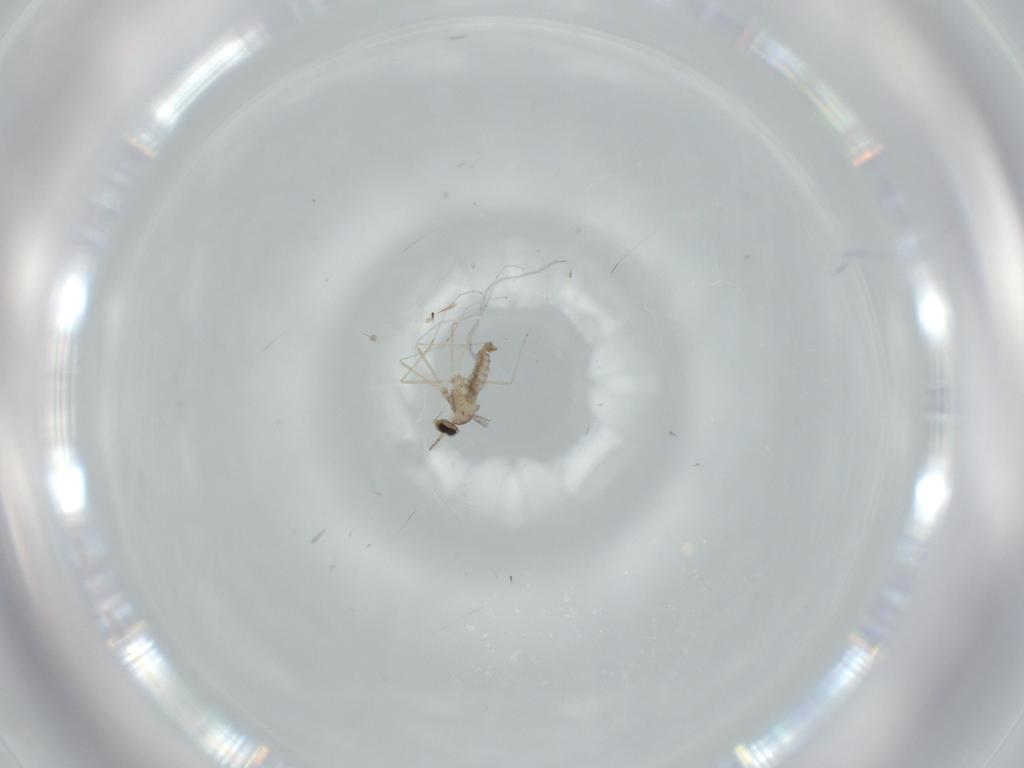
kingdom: Animalia
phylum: Arthropoda
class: Insecta
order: Diptera
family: Cecidomyiidae
